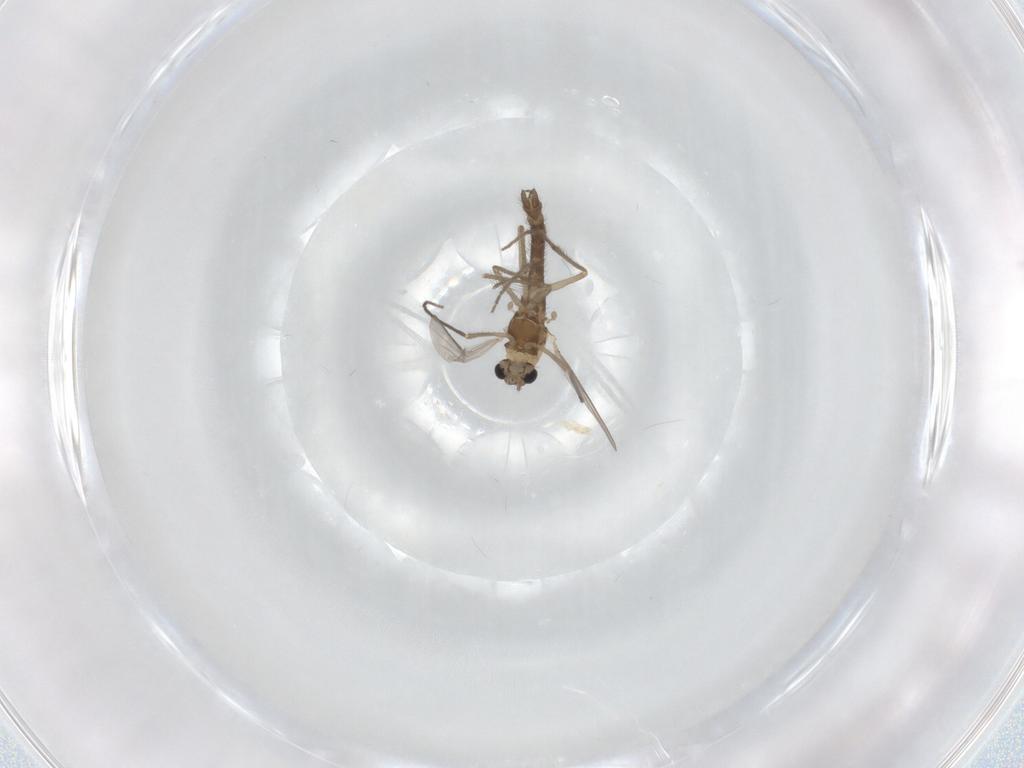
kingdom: Animalia
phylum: Arthropoda
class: Insecta
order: Diptera
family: Chironomidae
